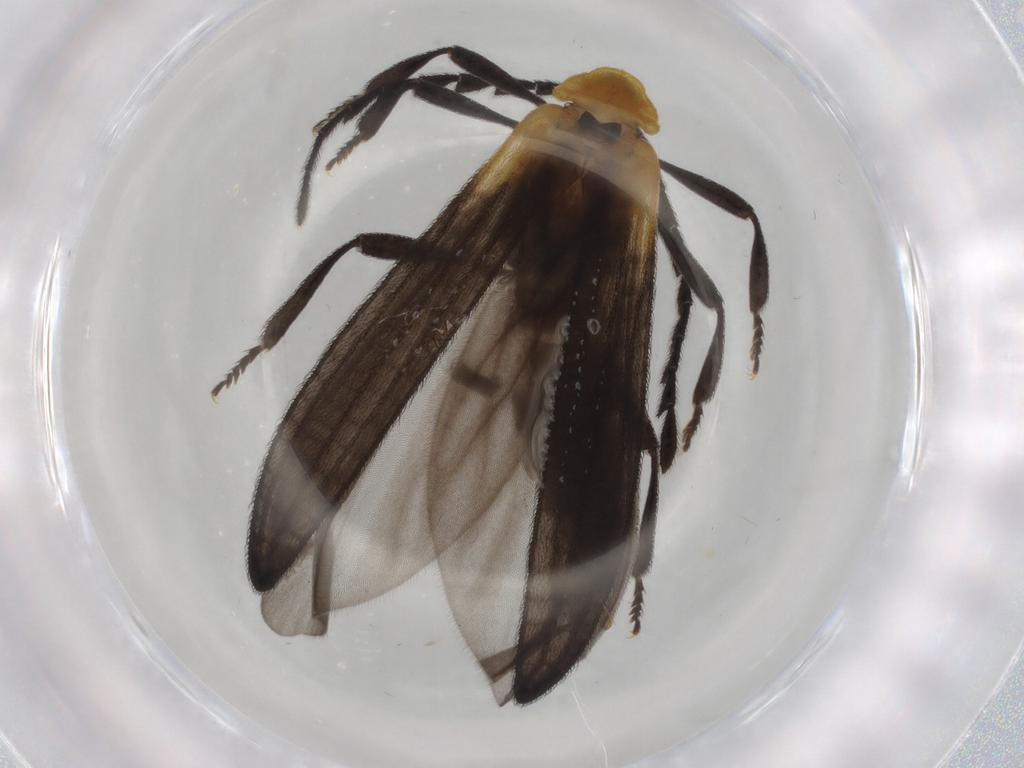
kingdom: Animalia
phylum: Arthropoda
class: Insecta
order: Coleoptera
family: Lycidae
